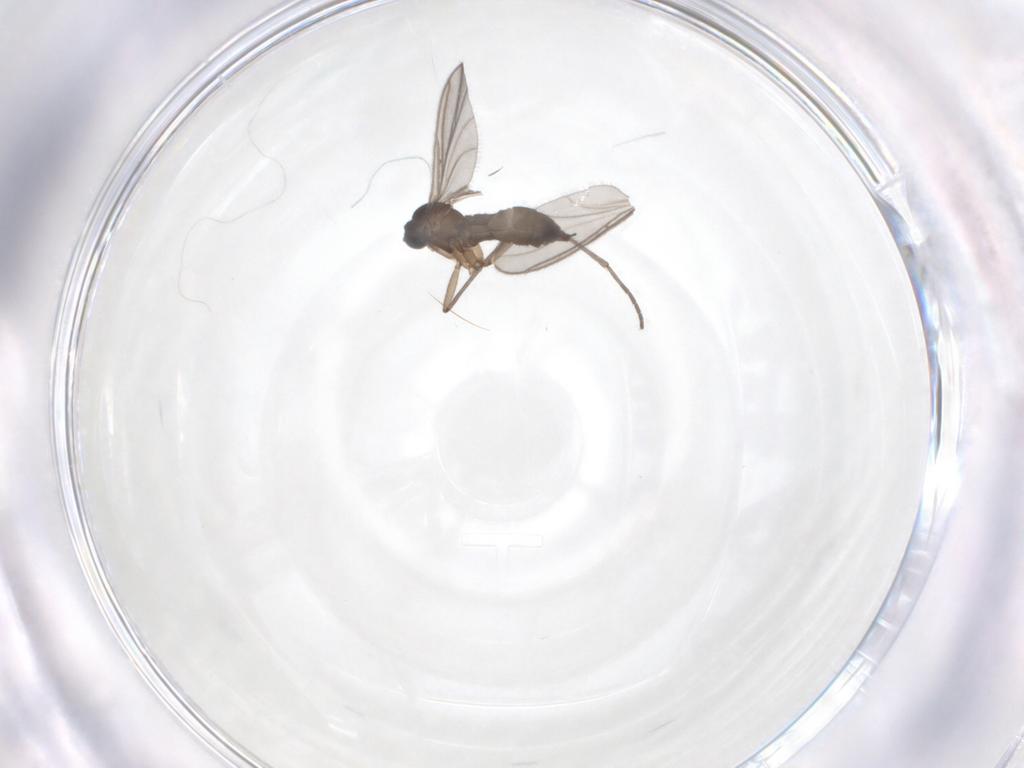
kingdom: Animalia
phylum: Arthropoda
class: Insecta
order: Diptera
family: Sciaridae
